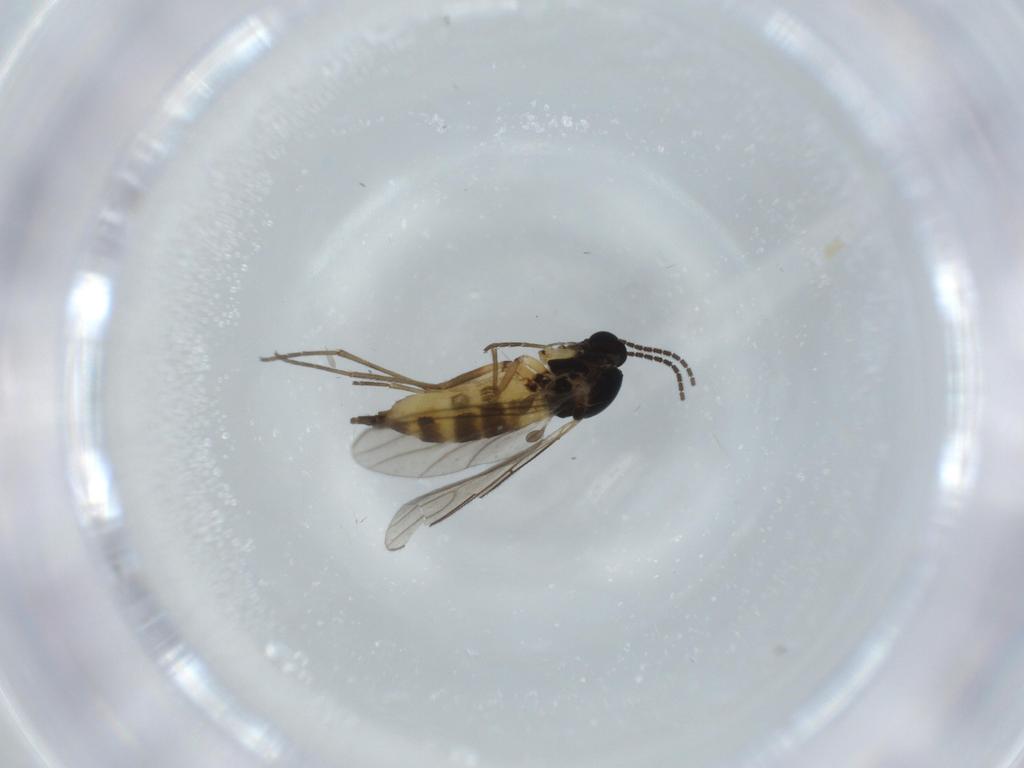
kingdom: Animalia
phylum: Arthropoda
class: Insecta
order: Diptera
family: Sciaridae
